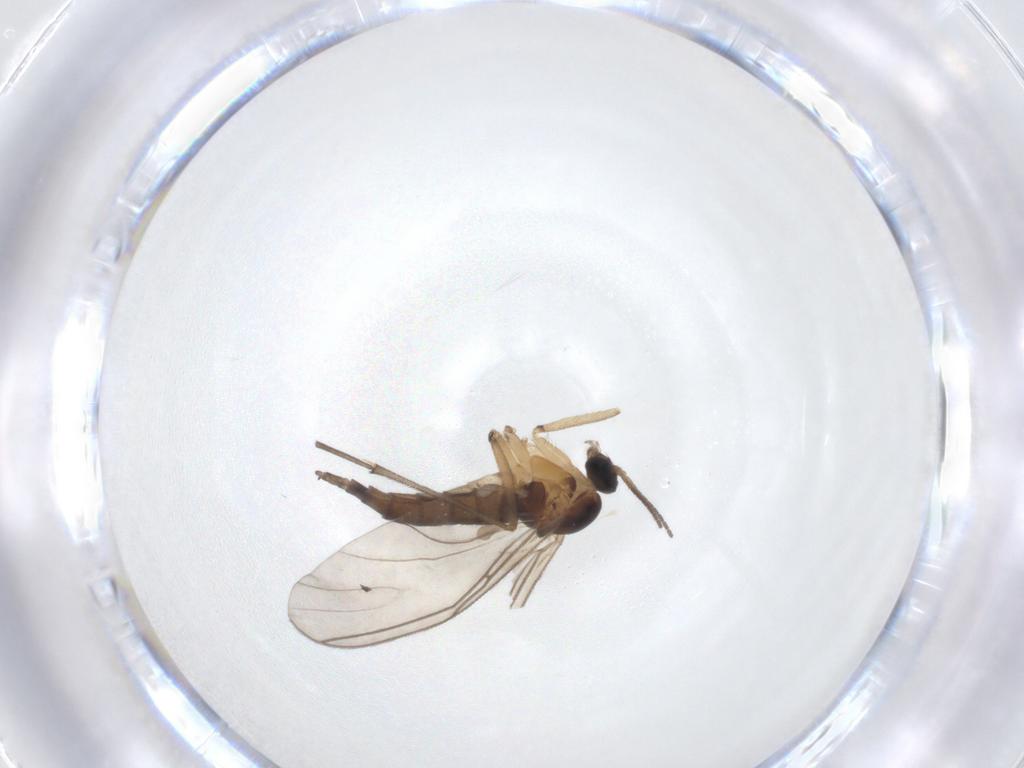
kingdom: Animalia
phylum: Arthropoda
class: Insecta
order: Diptera
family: Sciaridae
